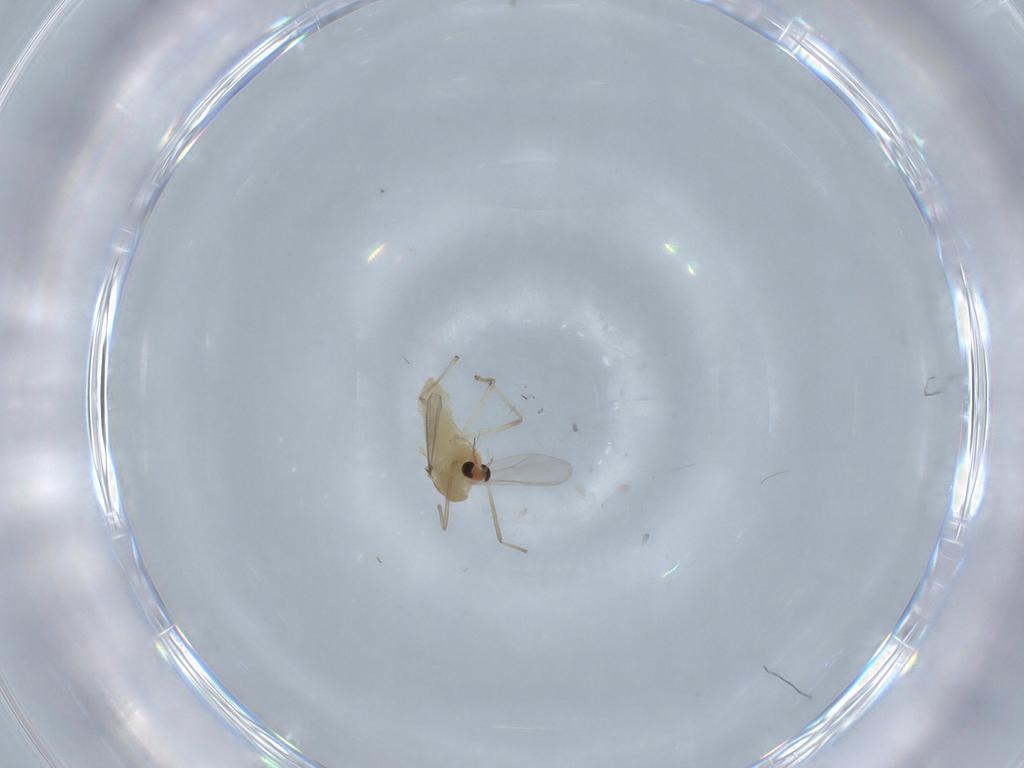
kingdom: Animalia
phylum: Arthropoda
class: Insecta
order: Diptera
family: Chironomidae
